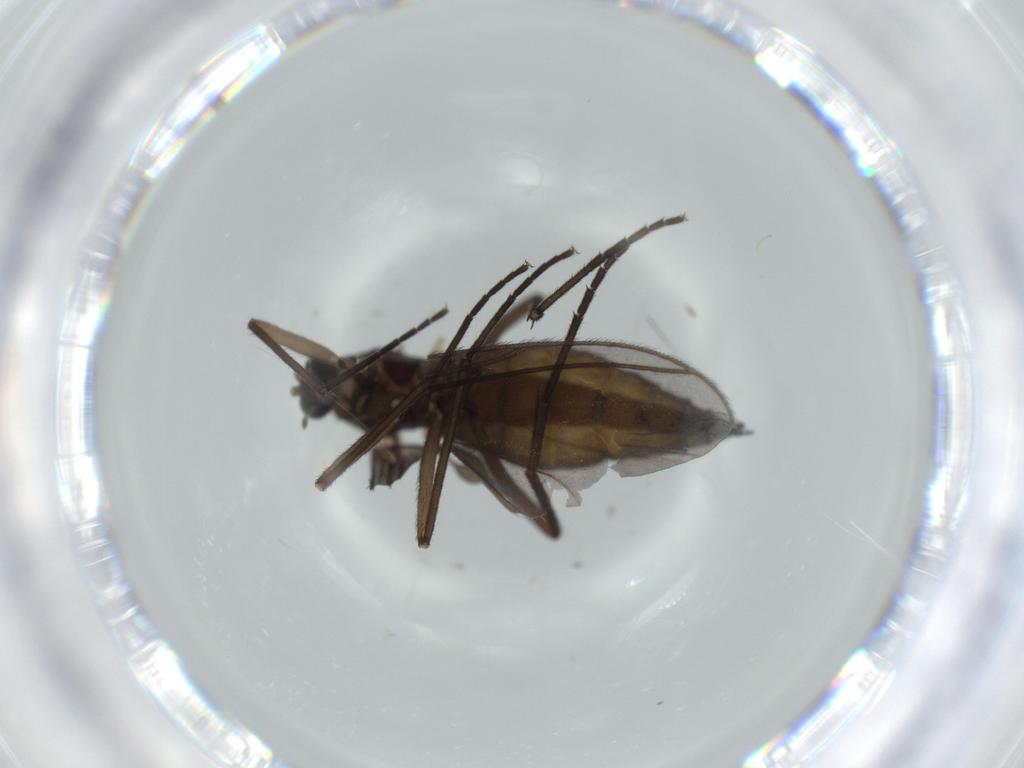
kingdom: Animalia
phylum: Arthropoda
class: Insecta
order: Diptera
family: Sciaridae
